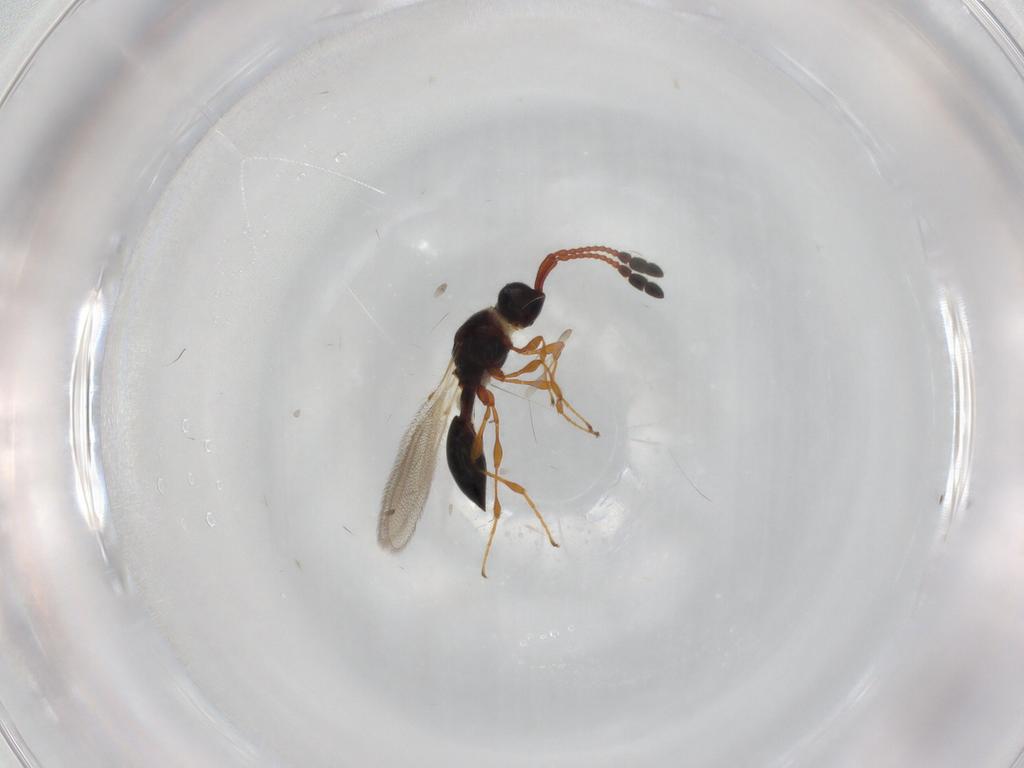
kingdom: Animalia
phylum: Arthropoda
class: Insecta
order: Hymenoptera
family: Diapriidae
